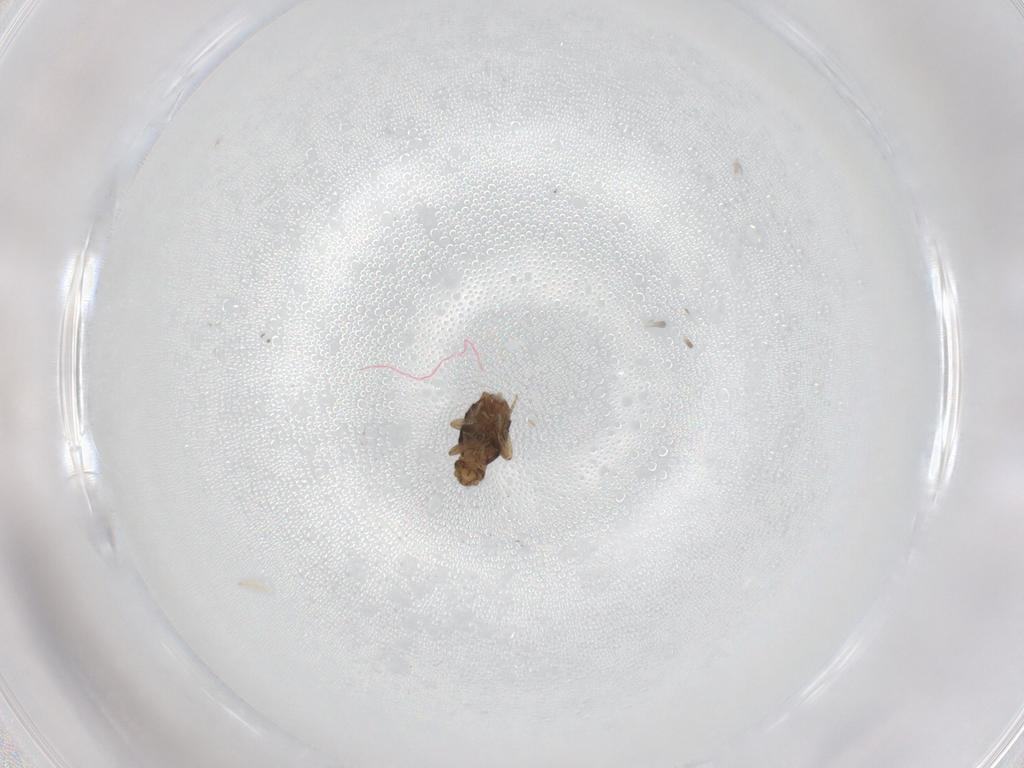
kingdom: Animalia
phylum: Arthropoda
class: Insecta
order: Diptera
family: Phoridae
